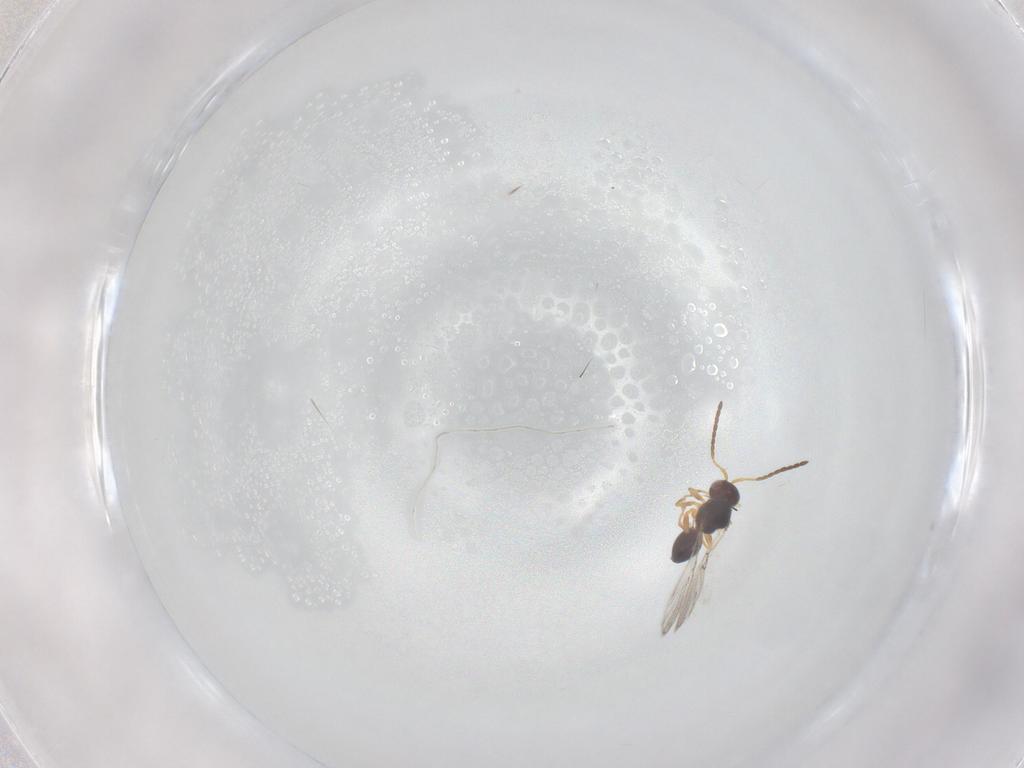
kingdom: Animalia
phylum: Arthropoda
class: Insecta
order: Hymenoptera
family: Figitidae
